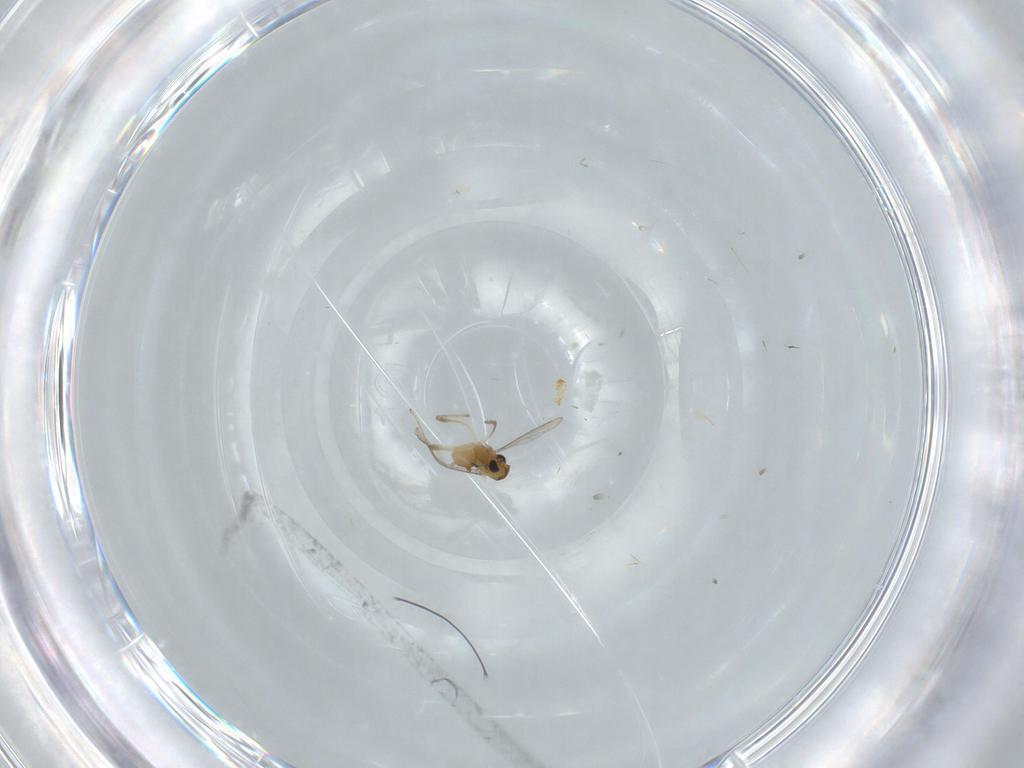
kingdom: Animalia
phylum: Arthropoda
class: Insecta
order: Diptera
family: Chironomidae
